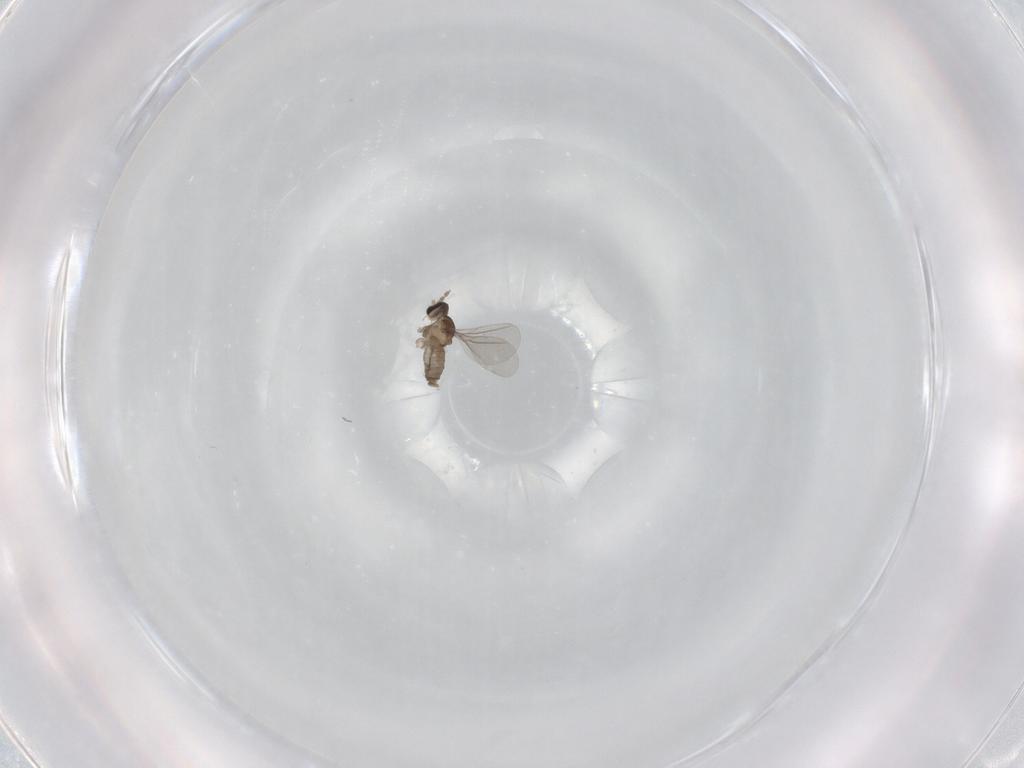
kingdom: Animalia
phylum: Arthropoda
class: Insecta
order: Diptera
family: Cecidomyiidae
